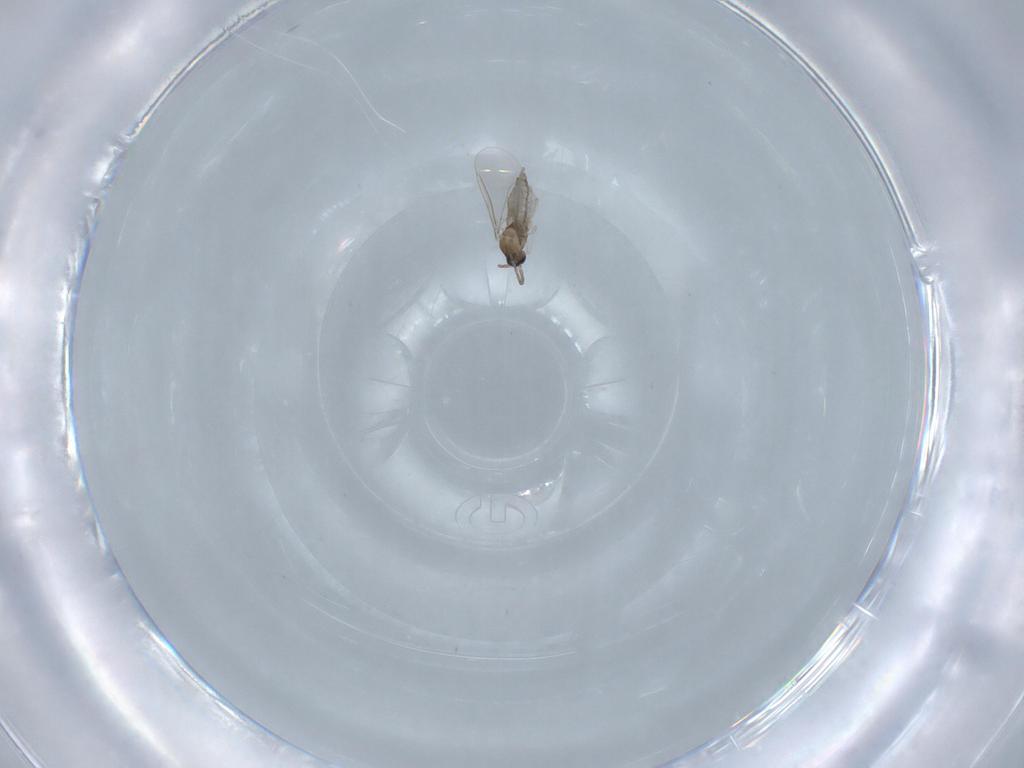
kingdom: Animalia
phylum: Arthropoda
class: Insecta
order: Diptera
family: Cecidomyiidae
